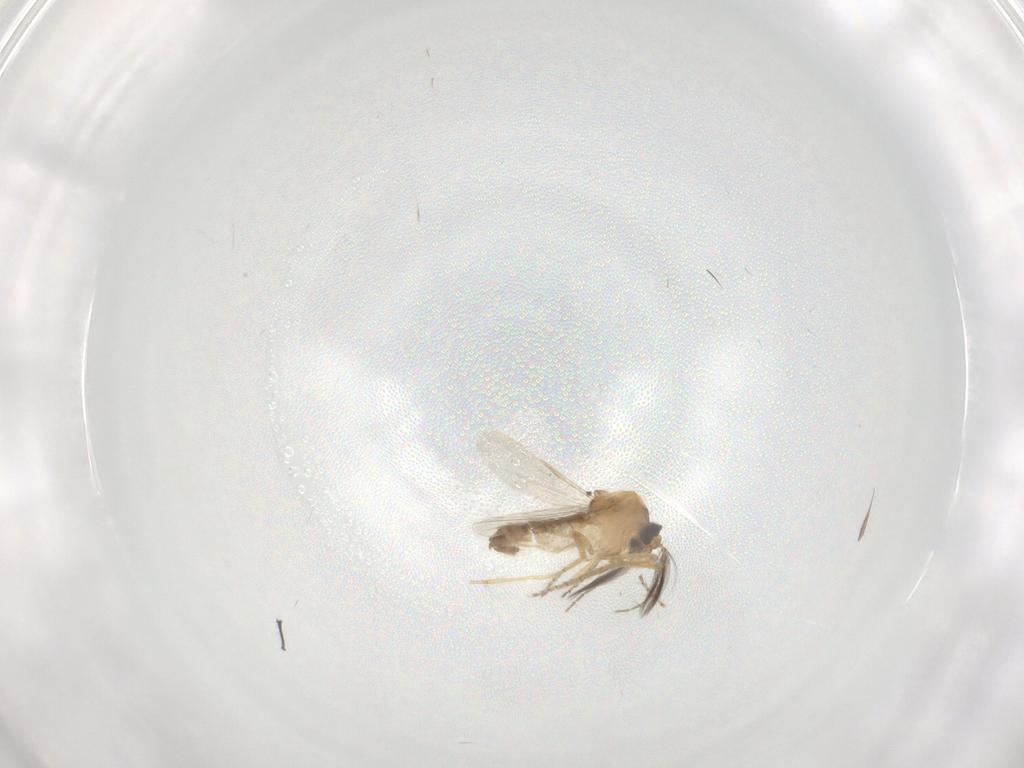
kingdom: Animalia
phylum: Arthropoda
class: Insecta
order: Diptera
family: Ceratopogonidae
